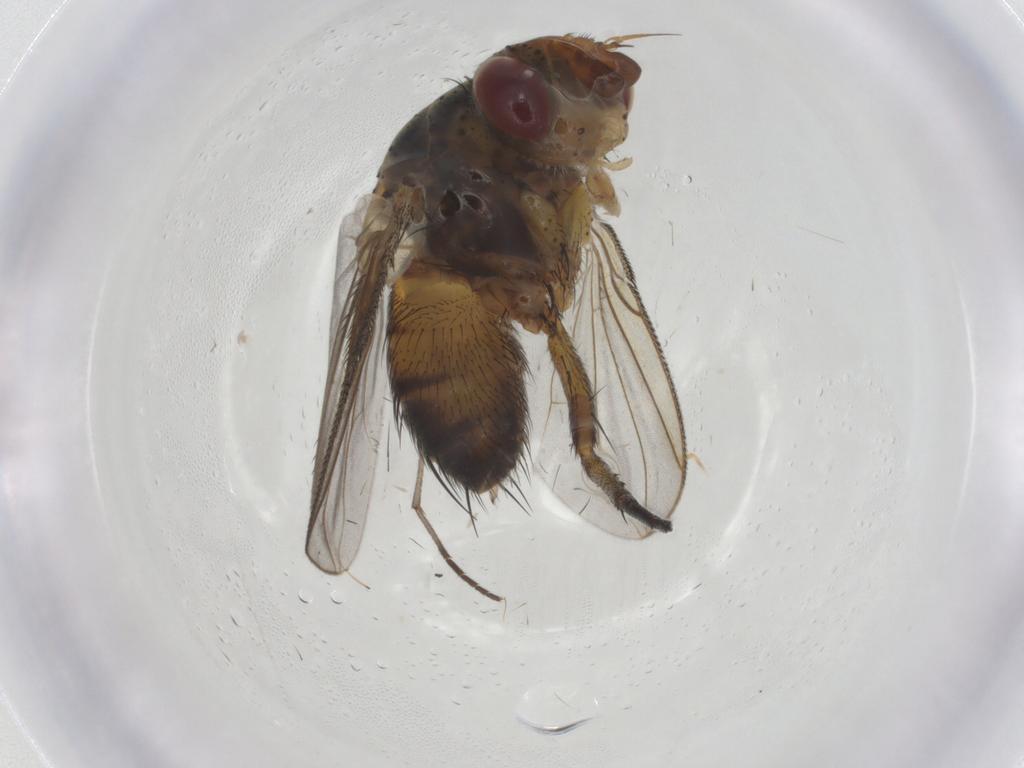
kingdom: Animalia
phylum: Arthropoda
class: Insecta
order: Diptera
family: Tachinidae
